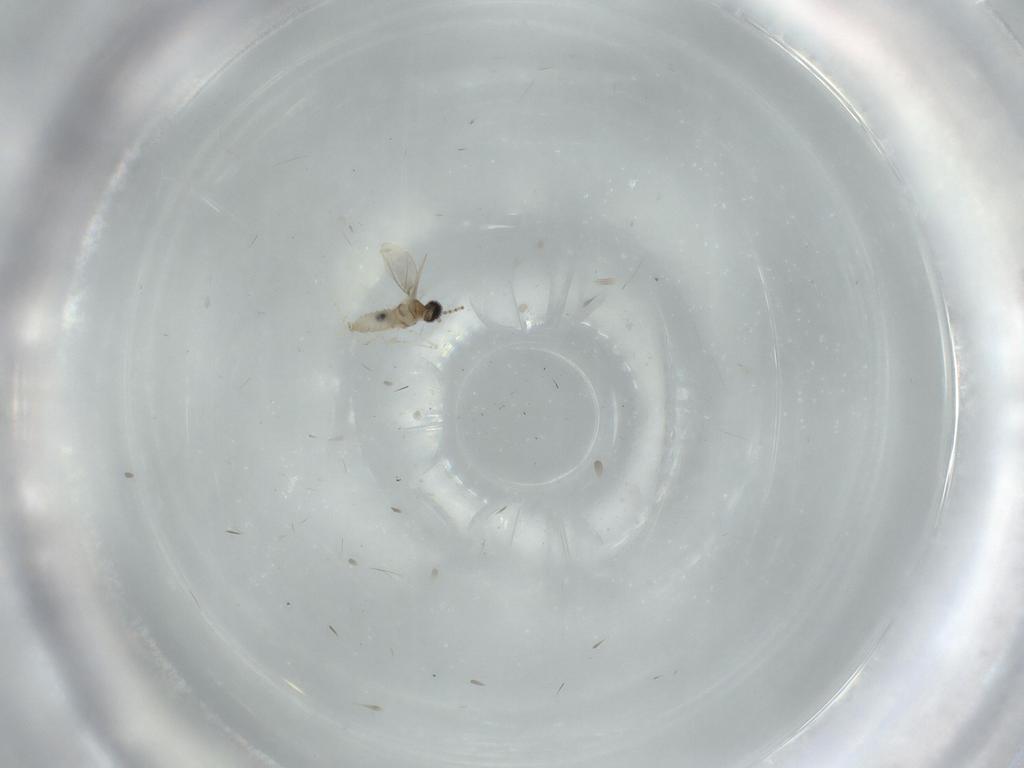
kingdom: Animalia
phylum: Arthropoda
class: Insecta
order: Diptera
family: Cecidomyiidae
